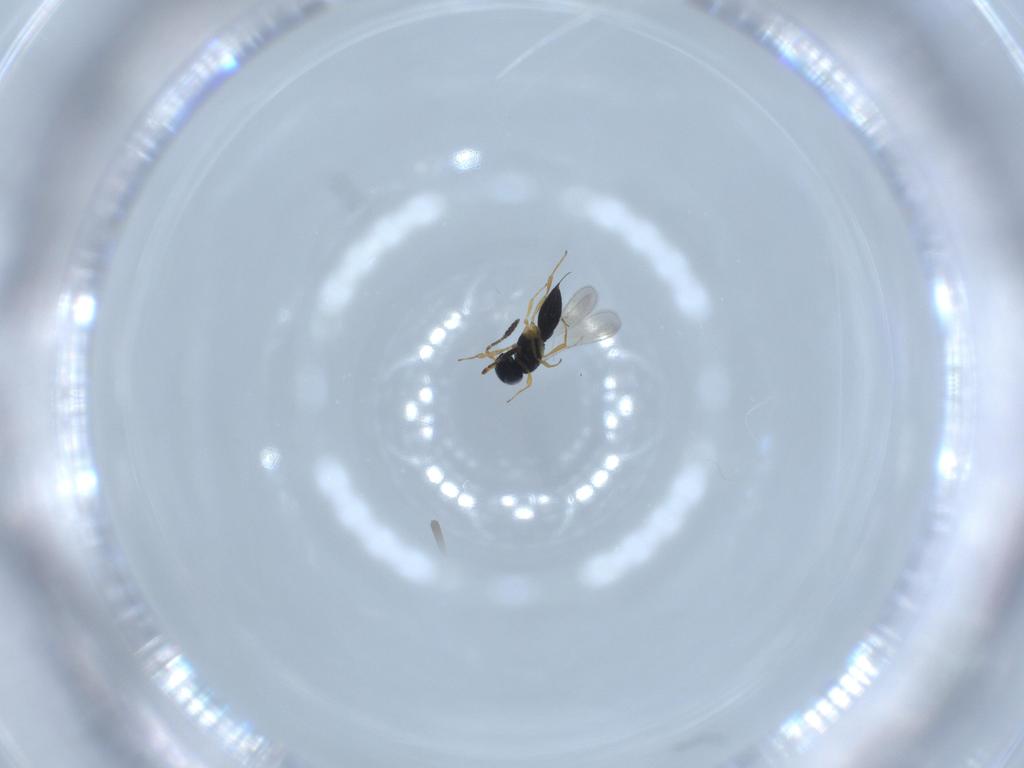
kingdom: Animalia
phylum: Arthropoda
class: Insecta
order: Hymenoptera
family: Scelionidae
